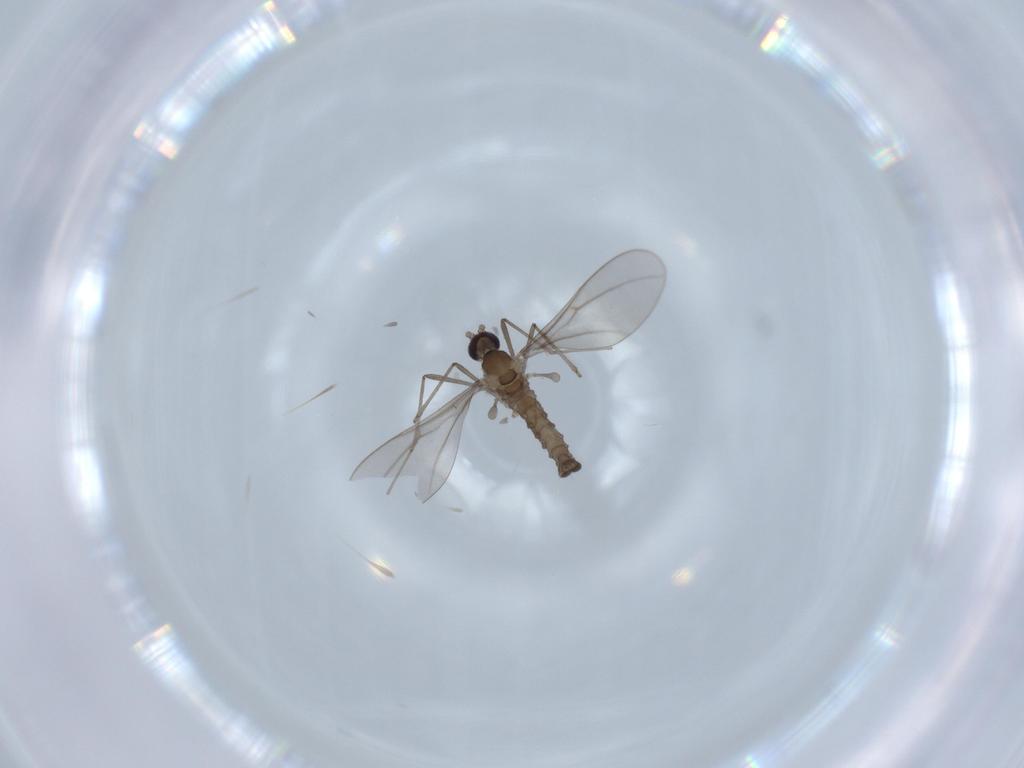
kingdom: Animalia
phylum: Arthropoda
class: Insecta
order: Diptera
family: Cecidomyiidae
